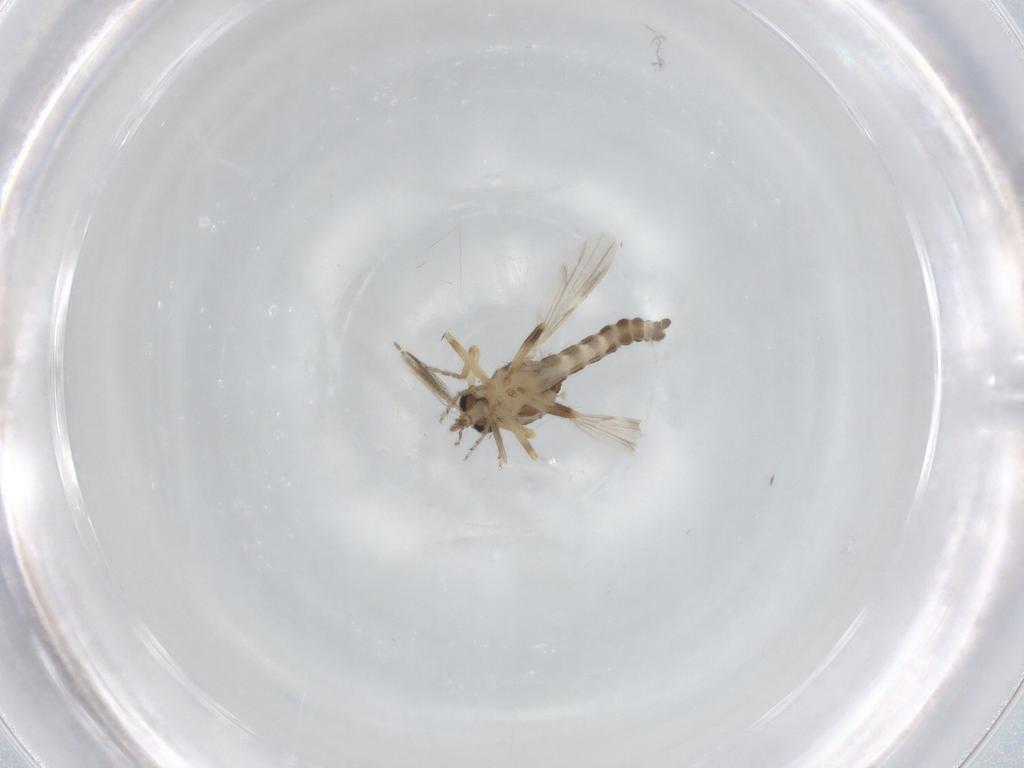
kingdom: Animalia
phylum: Arthropoda
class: Insecta
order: Diptera
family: Ceratopogonidae
